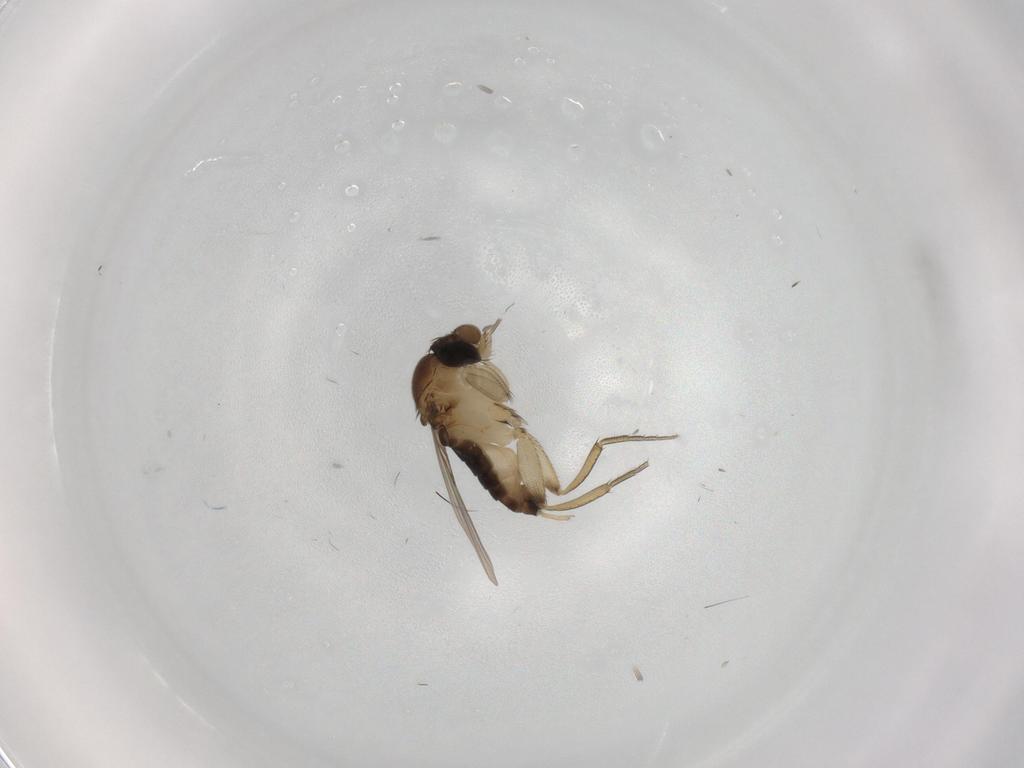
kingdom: Animalia
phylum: Arthropoda
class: Insecta
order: Diptera
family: Phoridae
